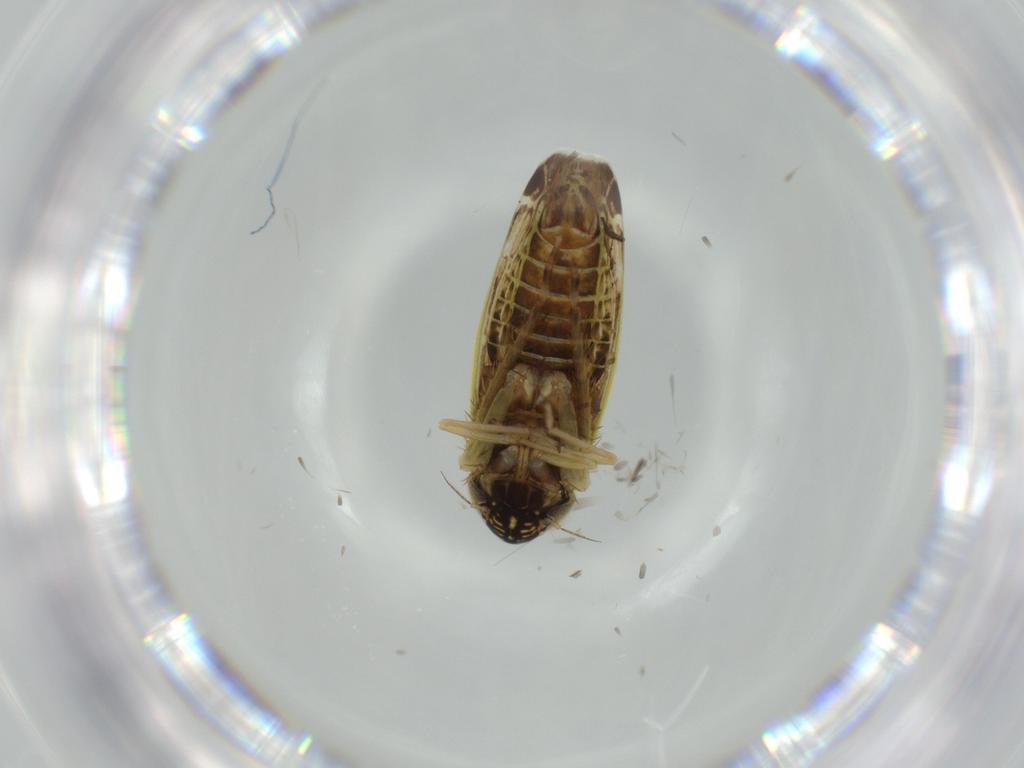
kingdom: Animalia
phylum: Arthropoda
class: Insecta
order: Hemiptera
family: Cicadellidae
